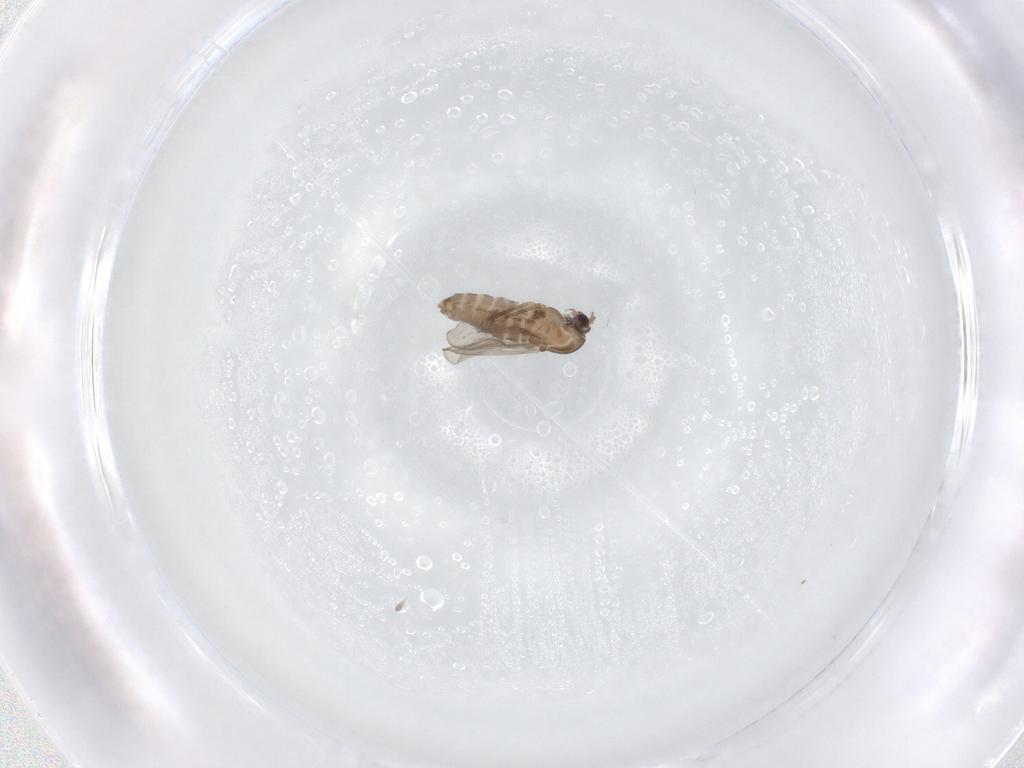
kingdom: Animalia
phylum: Arthropoda
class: Insecta
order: Diptera
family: Chironomidae
